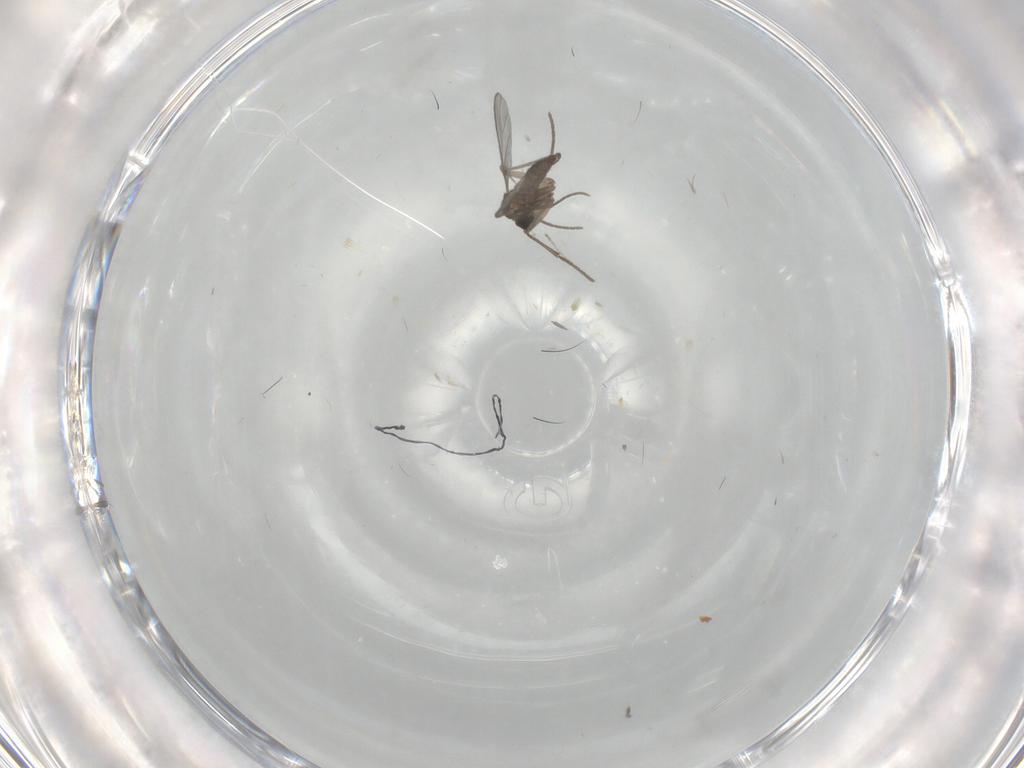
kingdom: Animalia
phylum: Arthropoda
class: Insecta
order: Diptera
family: Sciaridae
